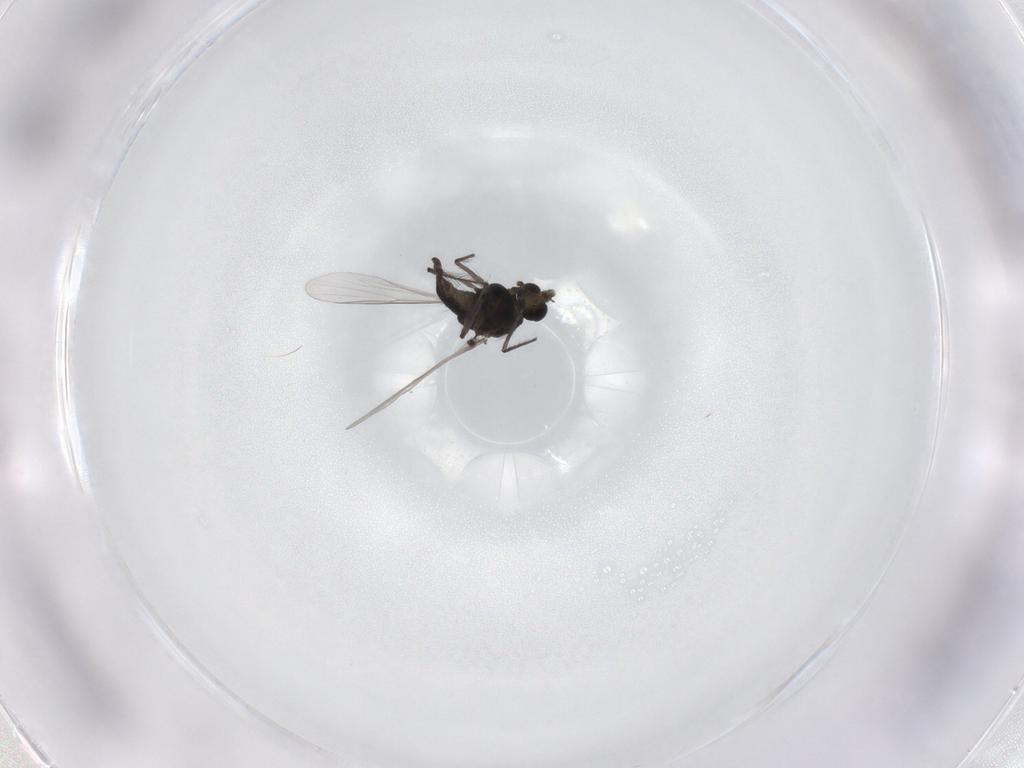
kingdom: Animalia
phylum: Arthropoda
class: Insecta
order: Diptera
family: Chironomidae
